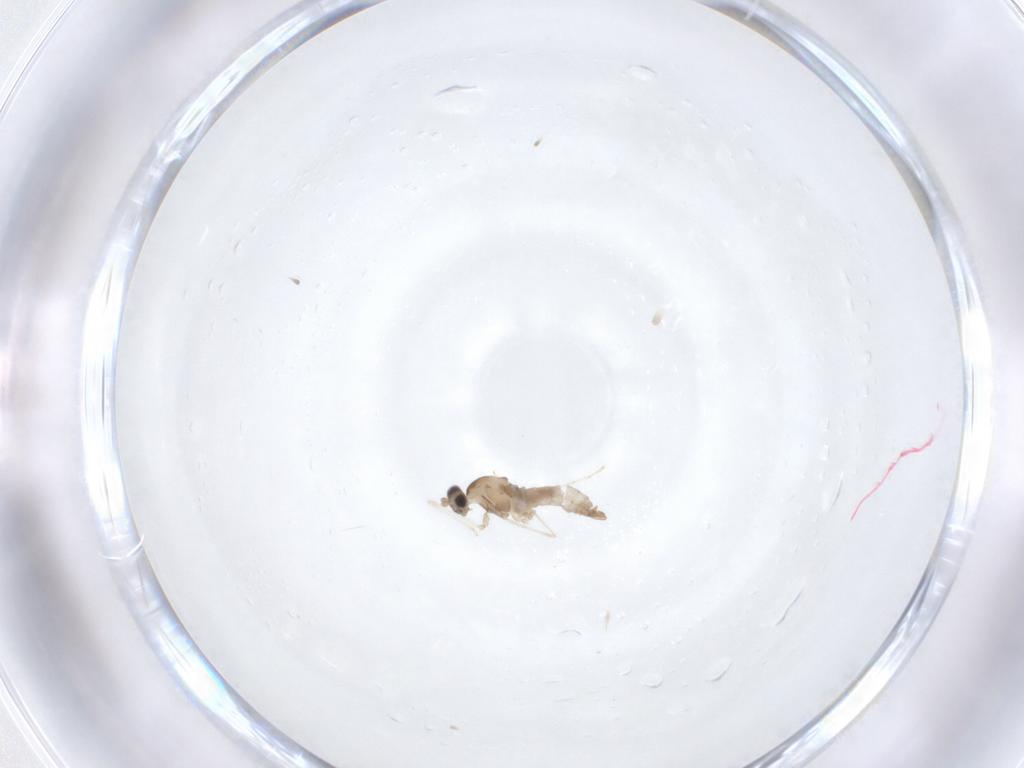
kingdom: Animalia
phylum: Arthropoda
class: Insecta
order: Diptera
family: Cecidomyiidae
